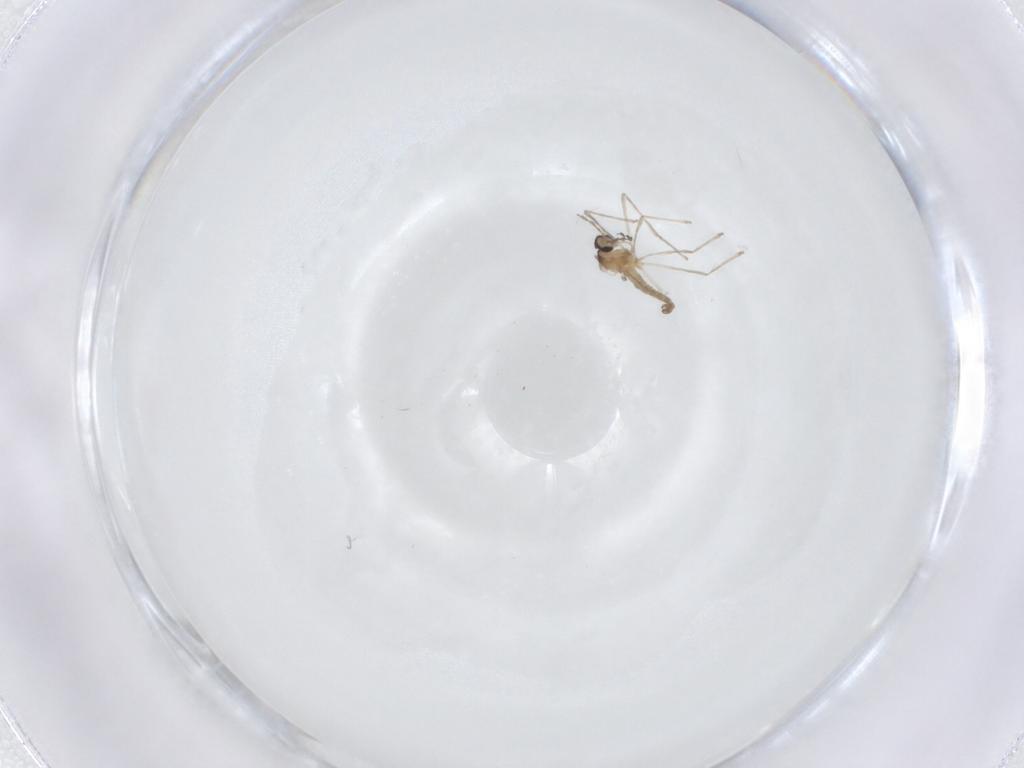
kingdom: Animalia
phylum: Arthropoda
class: Insecta
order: Diptera
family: Cecidomyiidae
